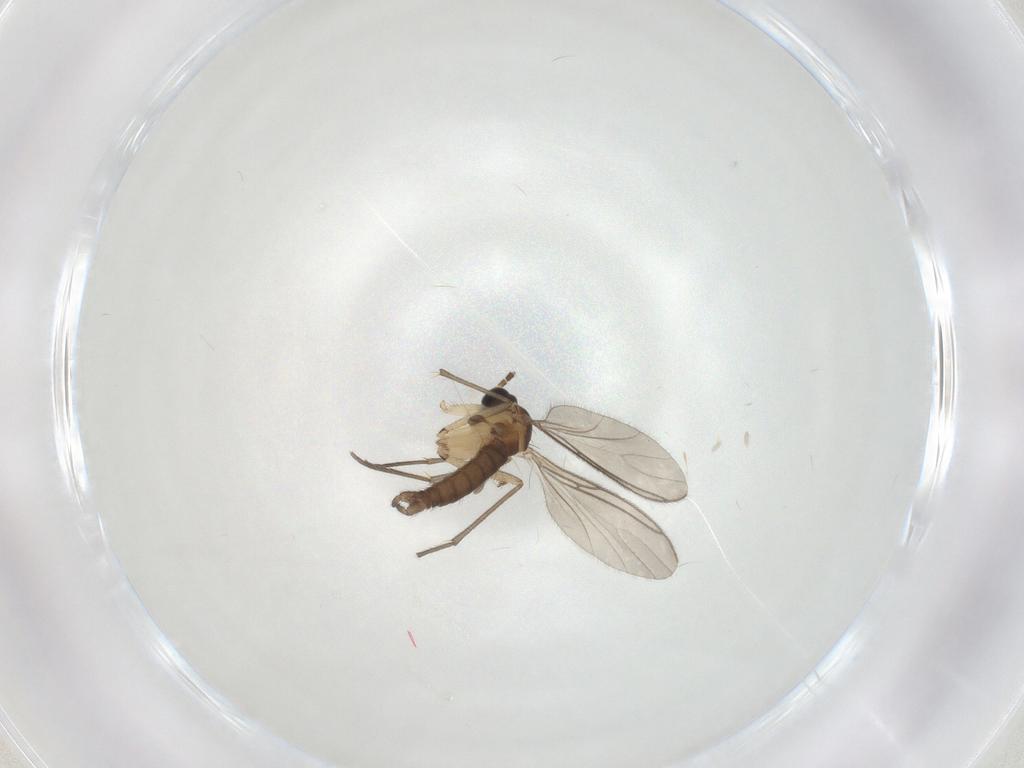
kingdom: Animalia
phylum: Arthropoda
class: Insecta
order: Diptera
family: Sciaridae
